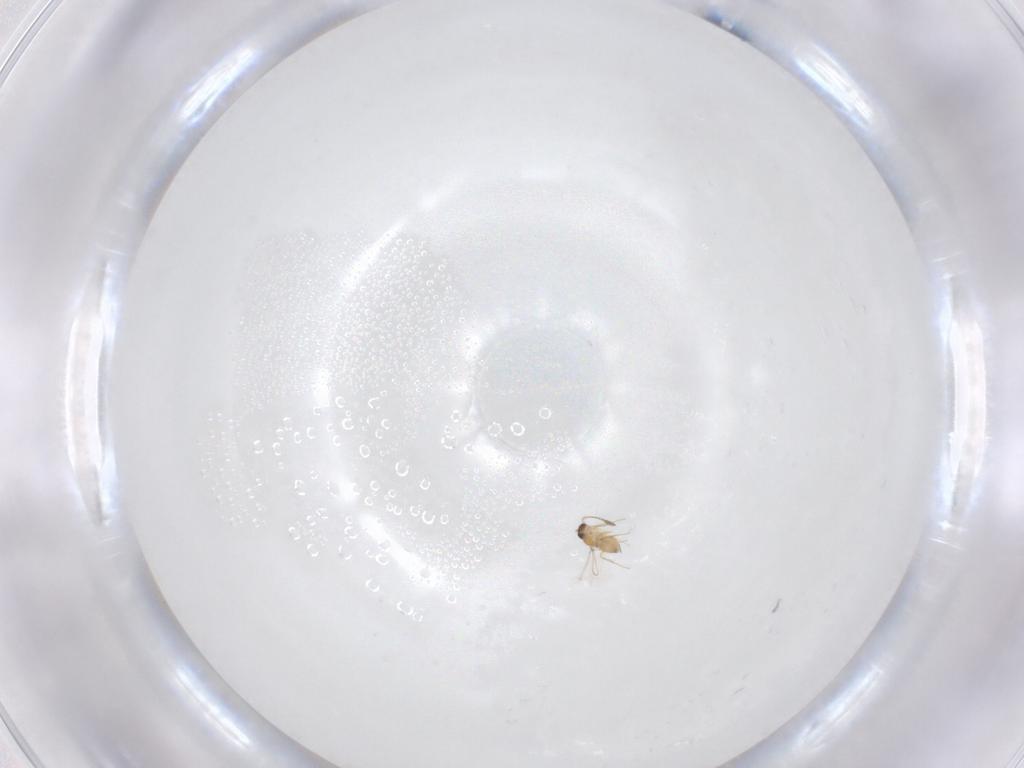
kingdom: Animalia
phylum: Arthropoda
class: Insecta
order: Hymenoptera
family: Mymaridae
